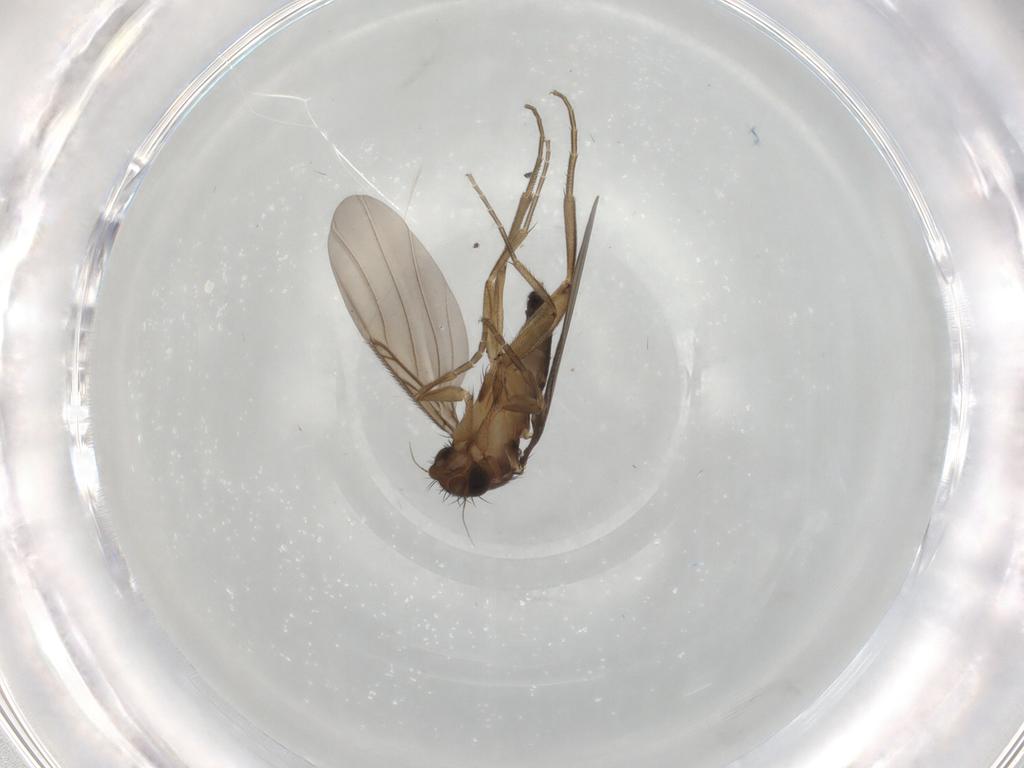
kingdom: Animalia
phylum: Arthropoda
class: Insecta
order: Diptera
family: Phoridae
